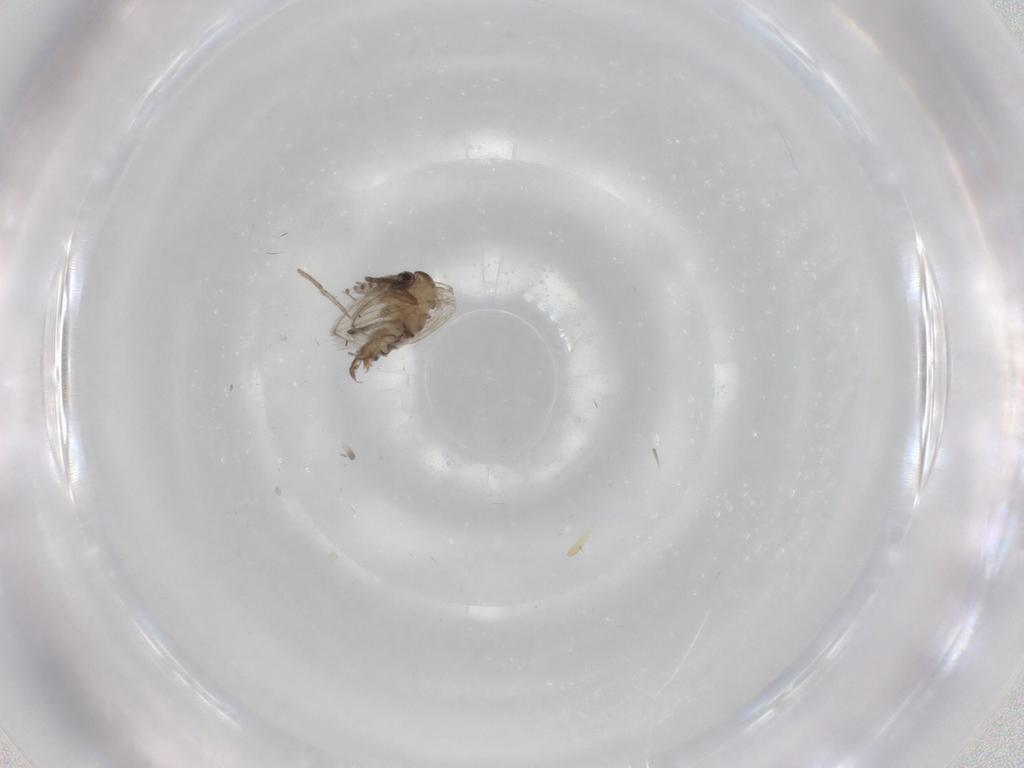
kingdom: Animalia
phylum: Arthropoda
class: Insecta
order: Diptera
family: Psychodidae
